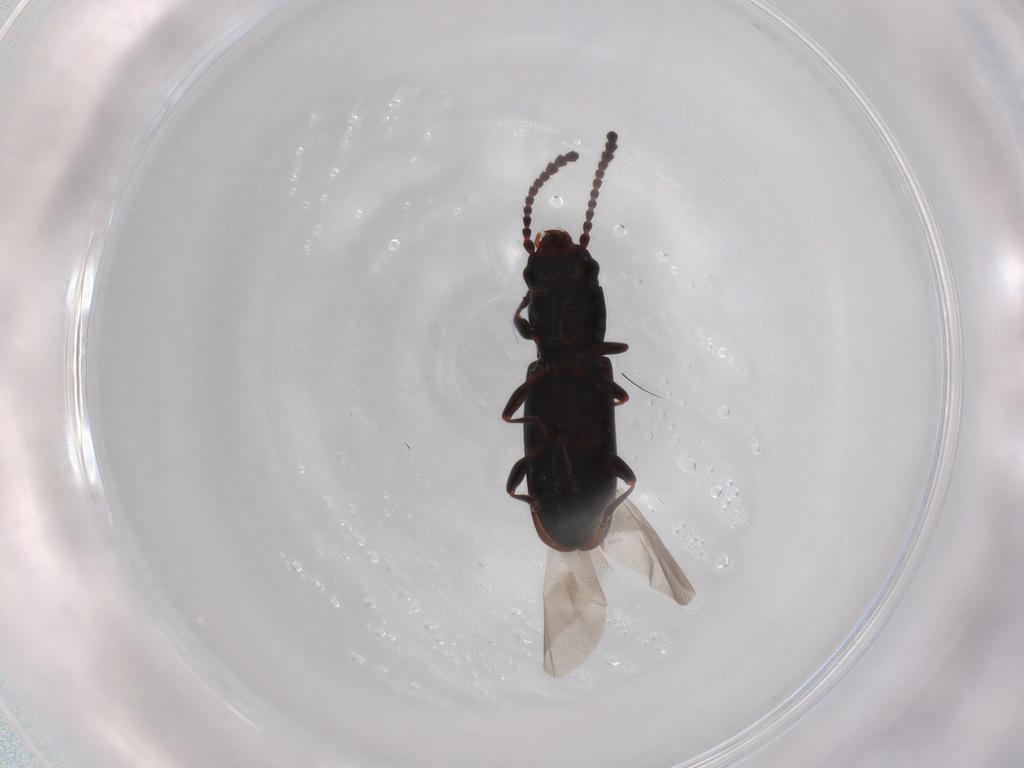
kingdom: Animalia
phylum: Arthropoda
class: Insecta
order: Coleoptera
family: Laemophloeidae
